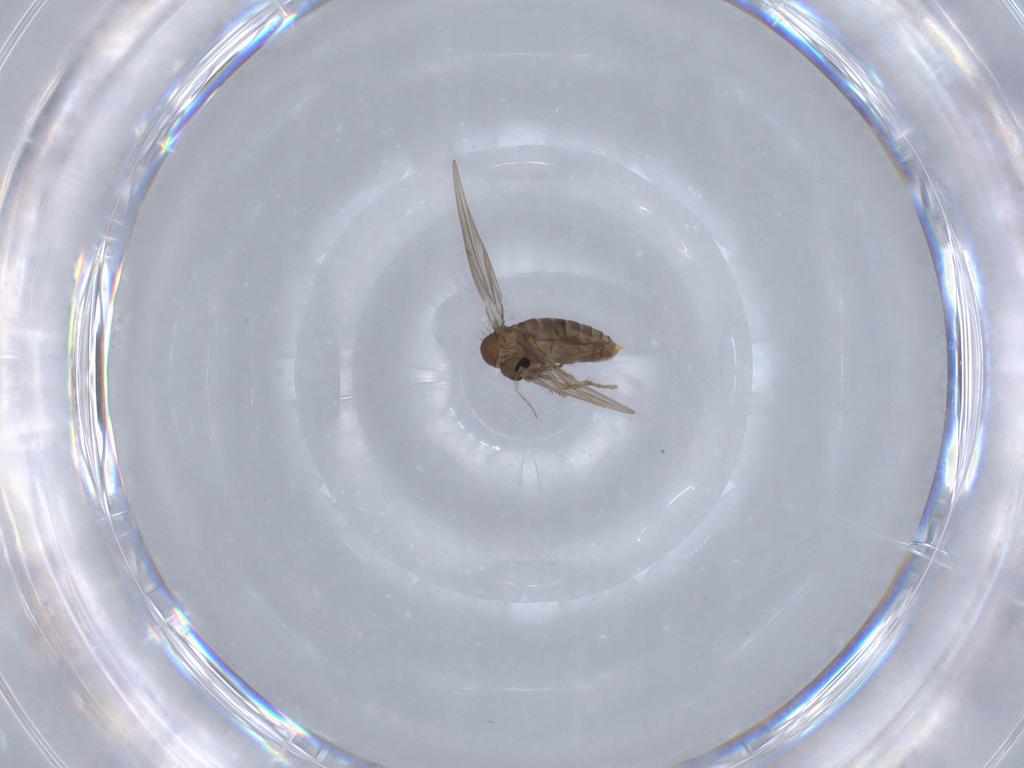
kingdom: Animalia
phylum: Arthropoda
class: Insecta
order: Diptera
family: Psychodidae
